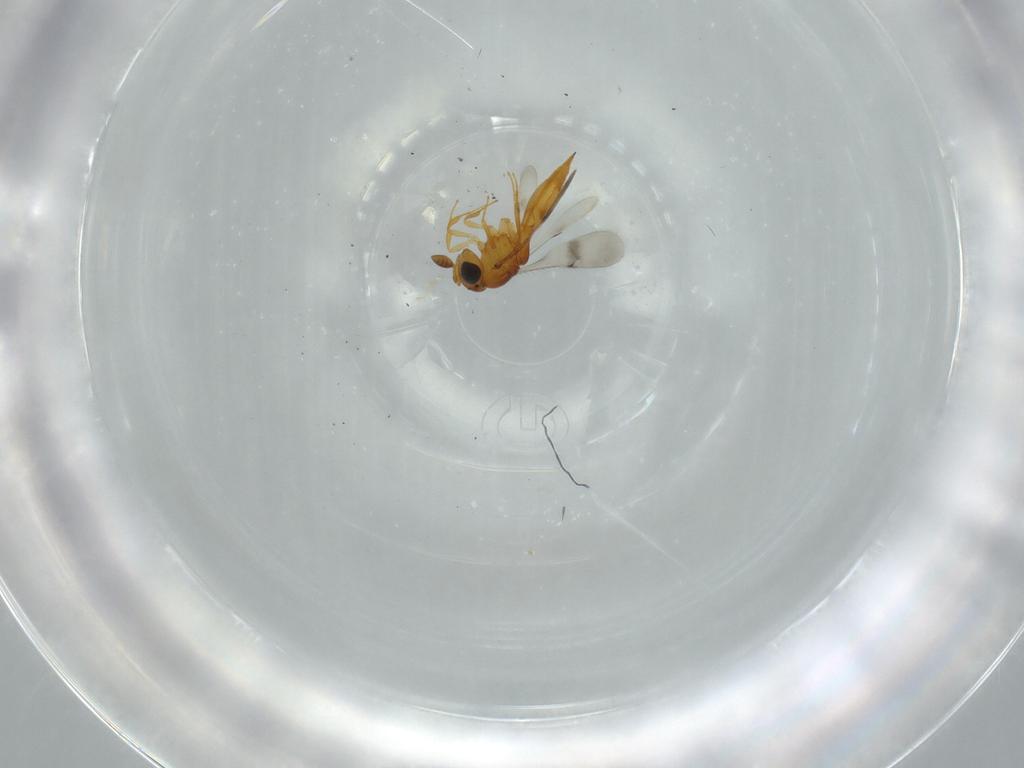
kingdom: Animalia
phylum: Arthropoda
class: Insecta
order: Hymenoptera
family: Scelionidae
